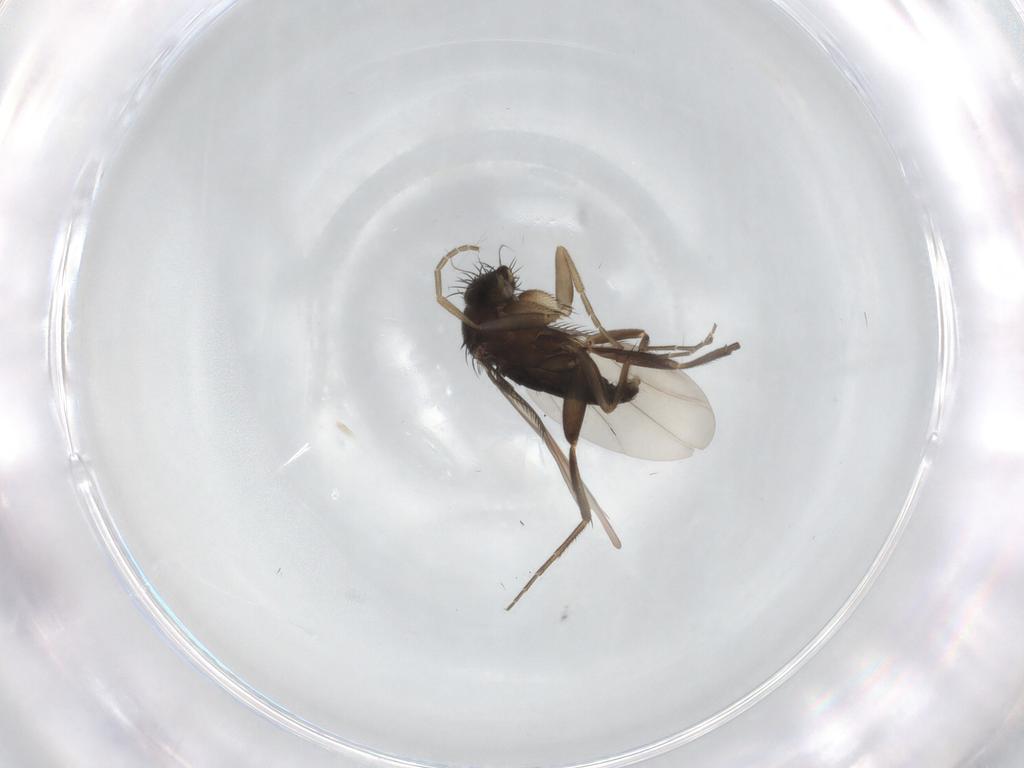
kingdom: Animalia
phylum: Arthropoda
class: Insecta
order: Diptera
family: Phoridae
